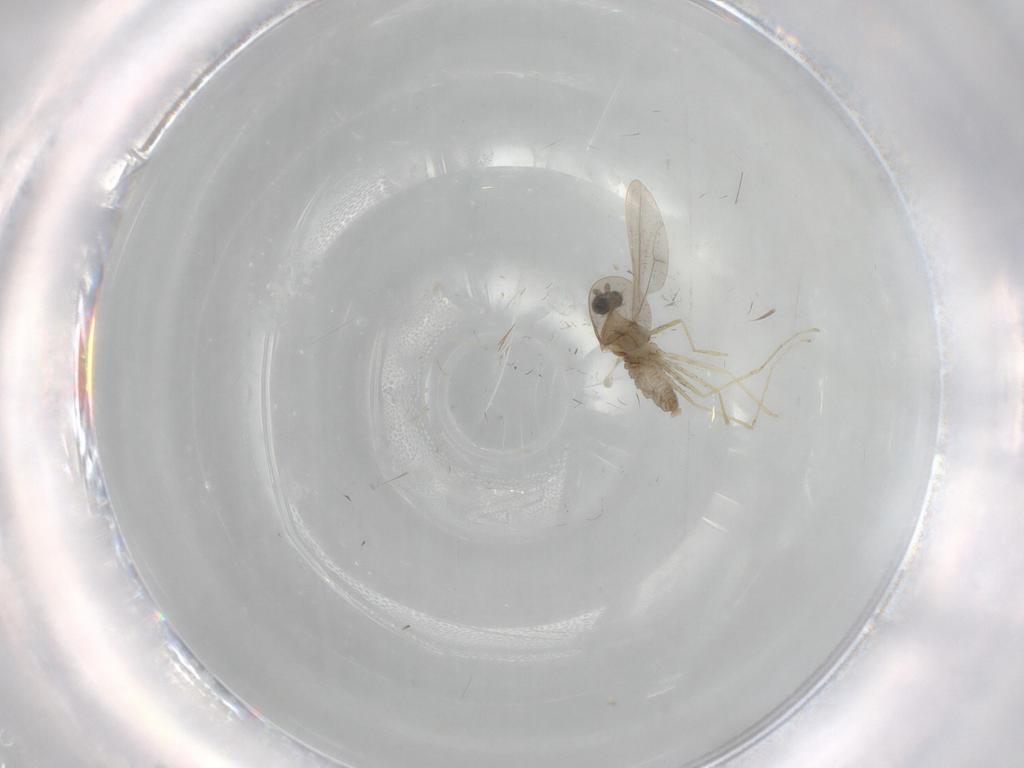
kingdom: Animalia
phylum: Arthropoda
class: Insecta
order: Diptera
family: Cecidomyiidae
